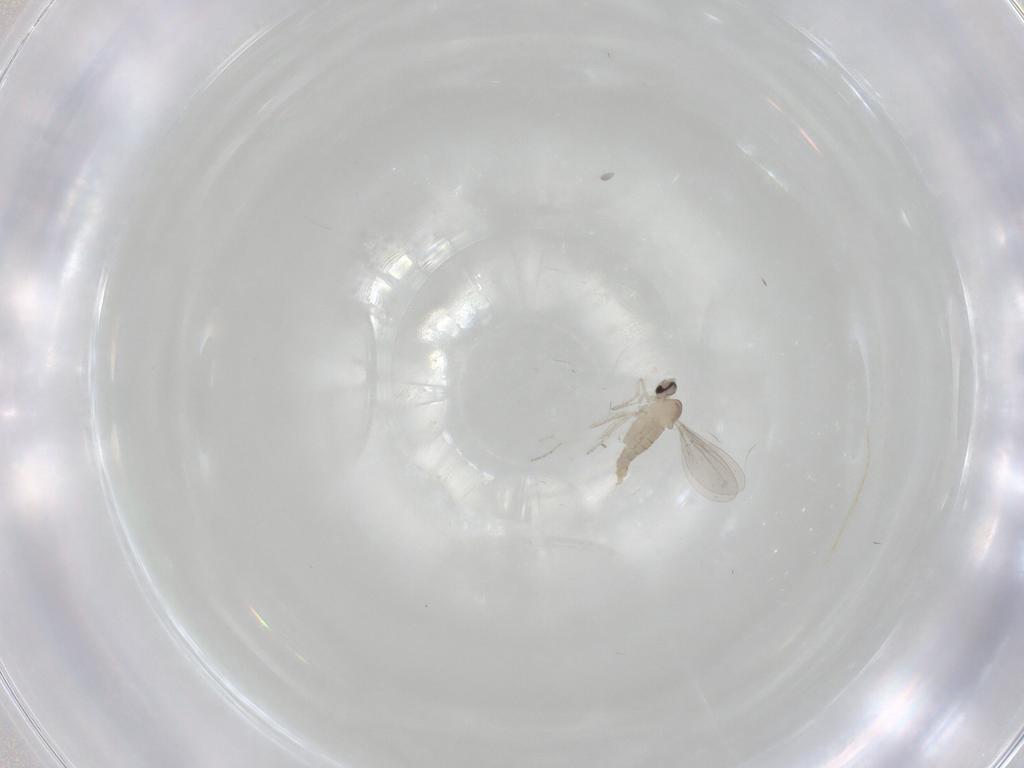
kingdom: Animalia
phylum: Arthropoda
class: Insecta
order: Diptera
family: Cecidomyiidae
